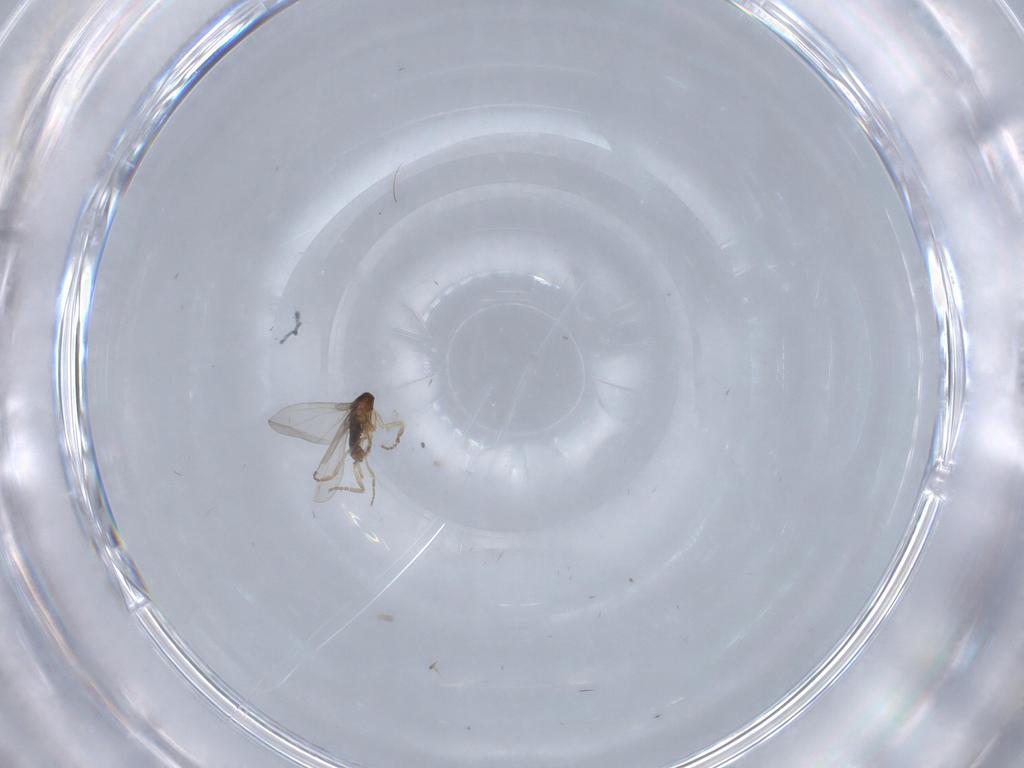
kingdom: Animalia
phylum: Arthropoda
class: Insecta
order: Diptera
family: Phoridae
